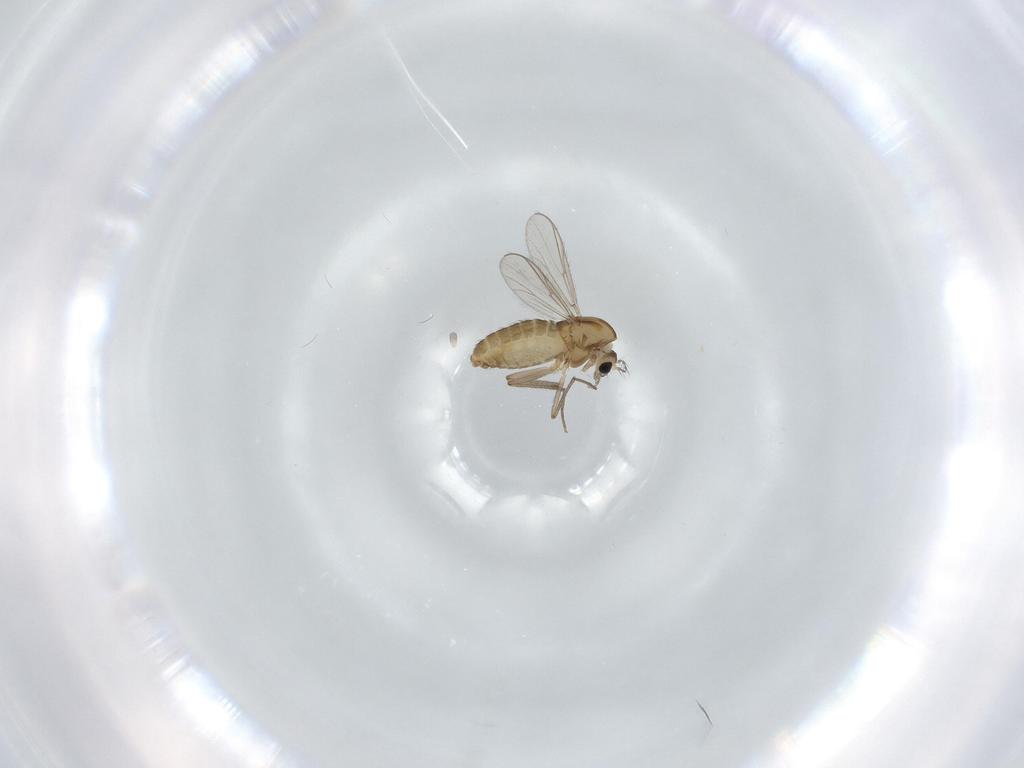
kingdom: Animalia
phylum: Arthropoda
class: Insecta
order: Diptera
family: Chironomidae
